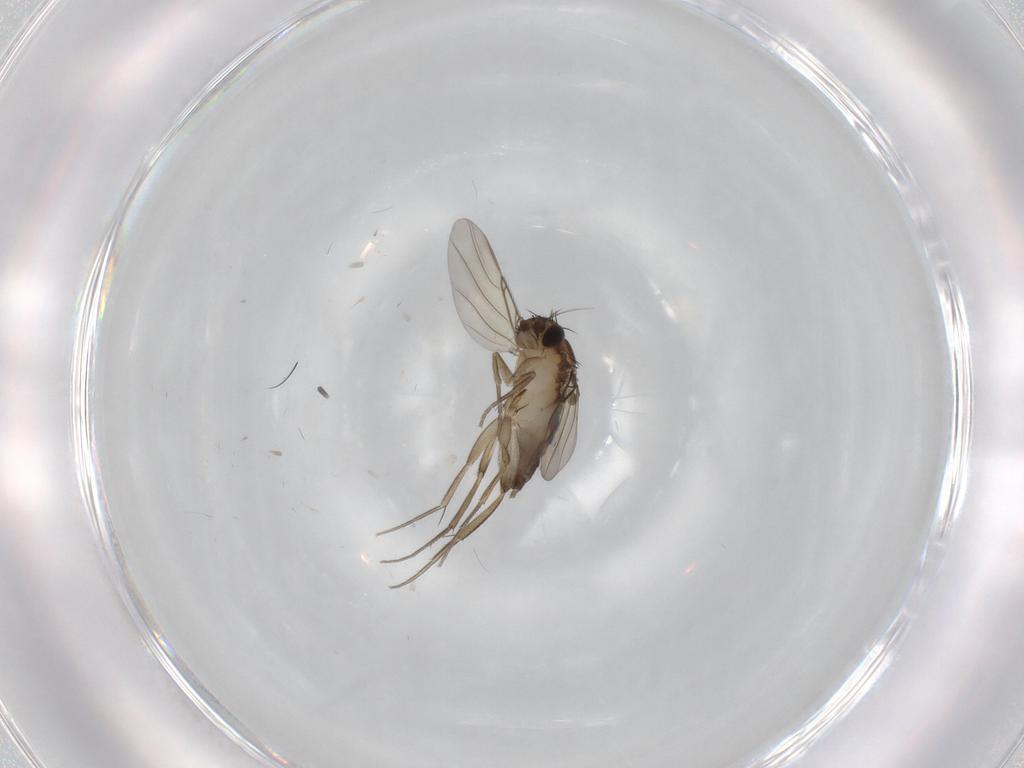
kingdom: Animalia
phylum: Arthropoda
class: Insecta
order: Diptera
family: Phoridae
